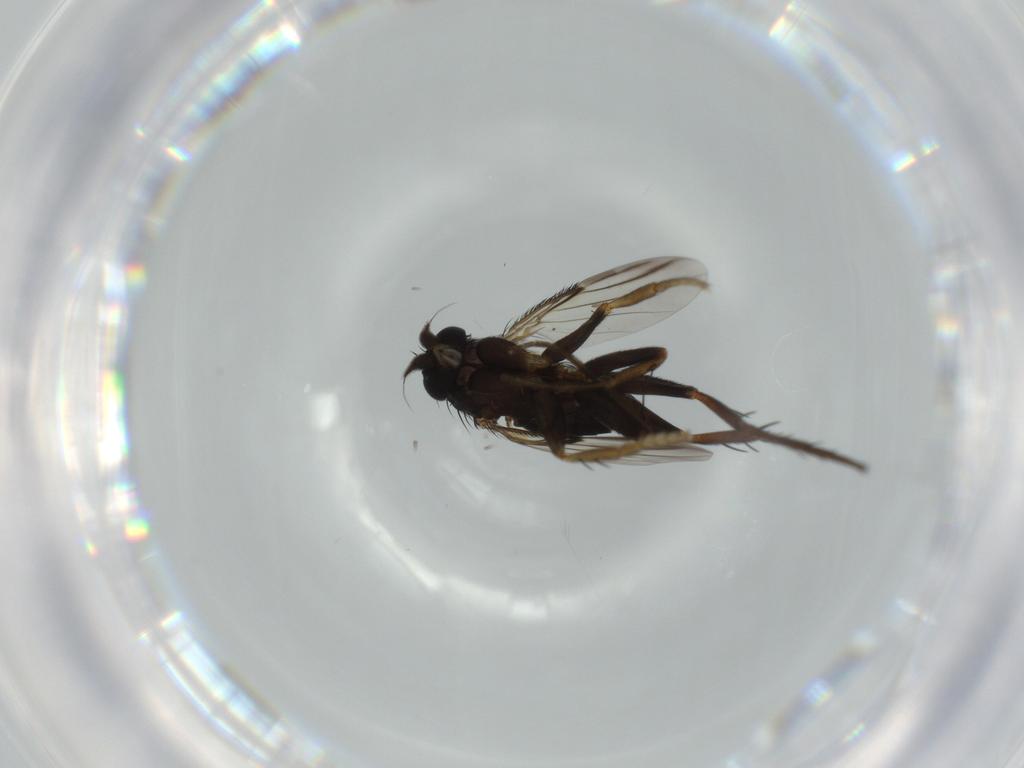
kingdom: Animalia
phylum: Arthropoda
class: Insecta
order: Diptera
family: Phoridae
